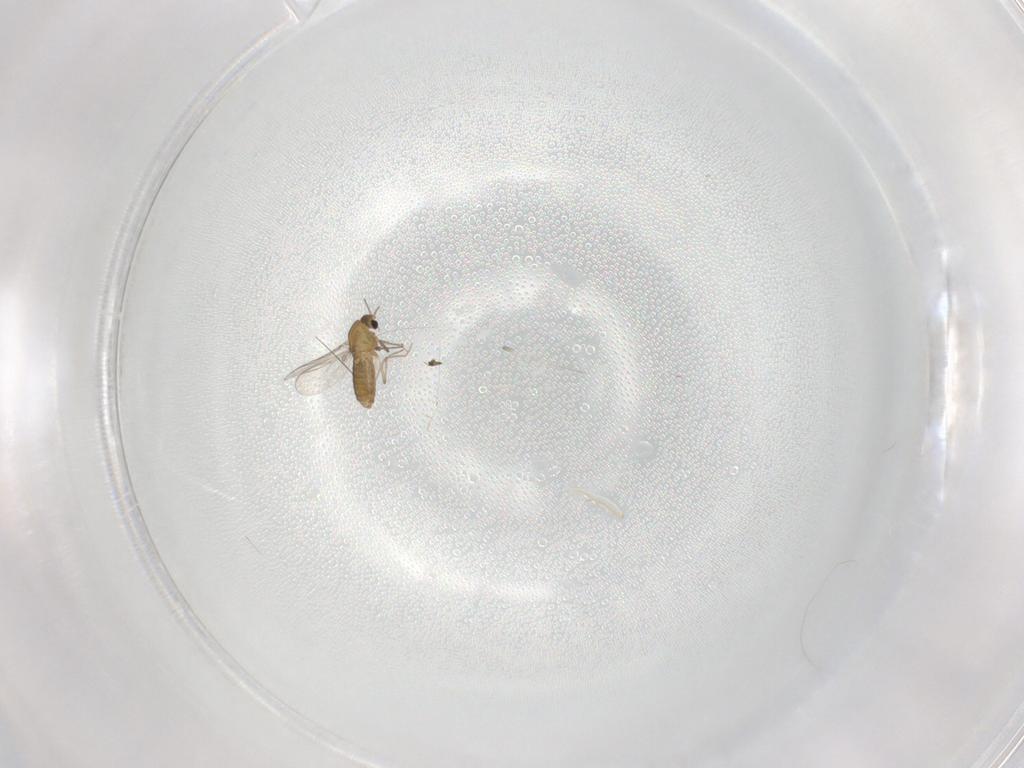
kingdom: Animalia
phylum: Arthropoda
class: Insecta
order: Diptera
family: Chironomidae
